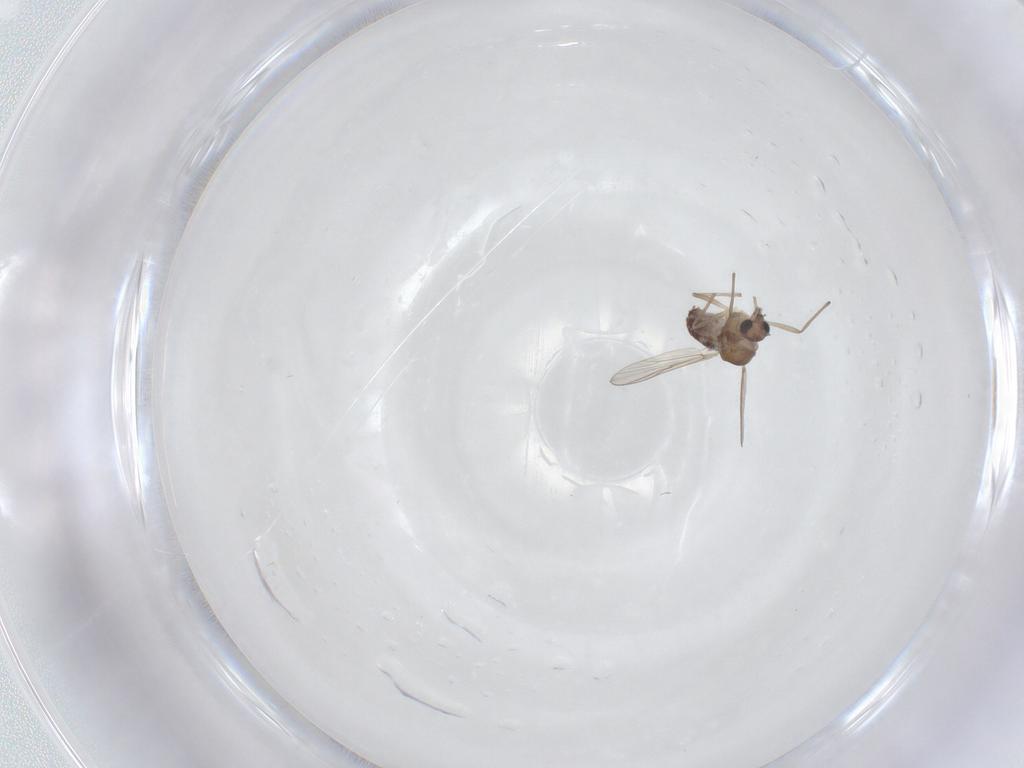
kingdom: Animalia
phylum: Arthropoda
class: Insecta
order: Diptera
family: Chironomidae
